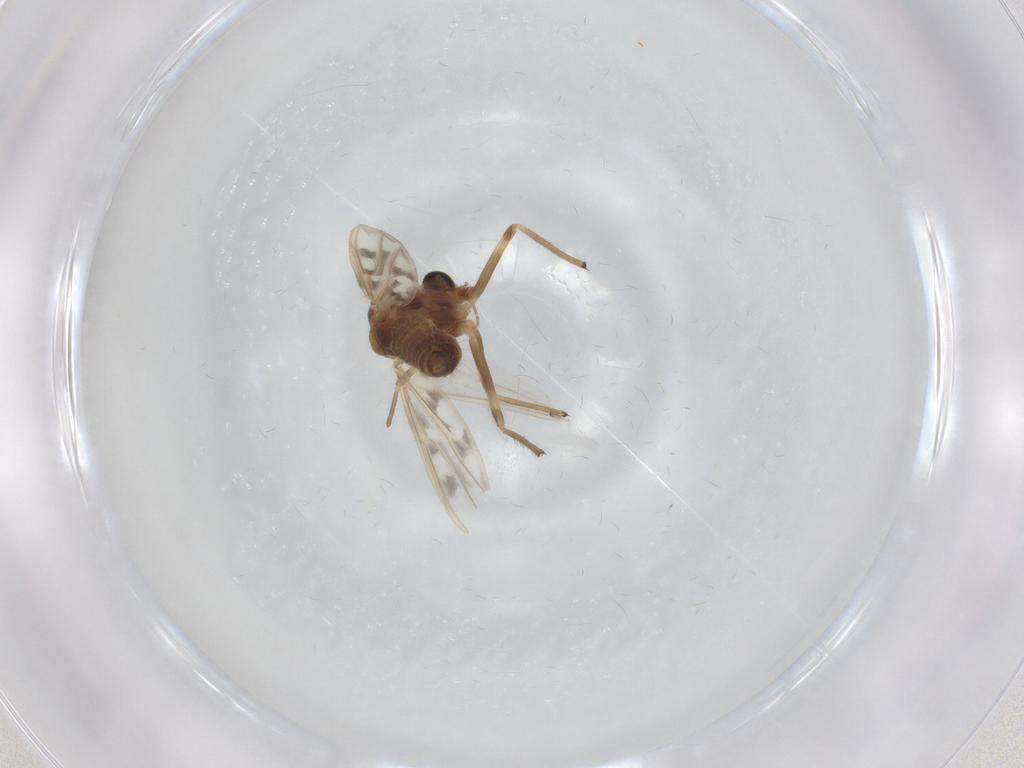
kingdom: Animalia
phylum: Arthropoda
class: Insecta
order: Diptera
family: Chironomidae
